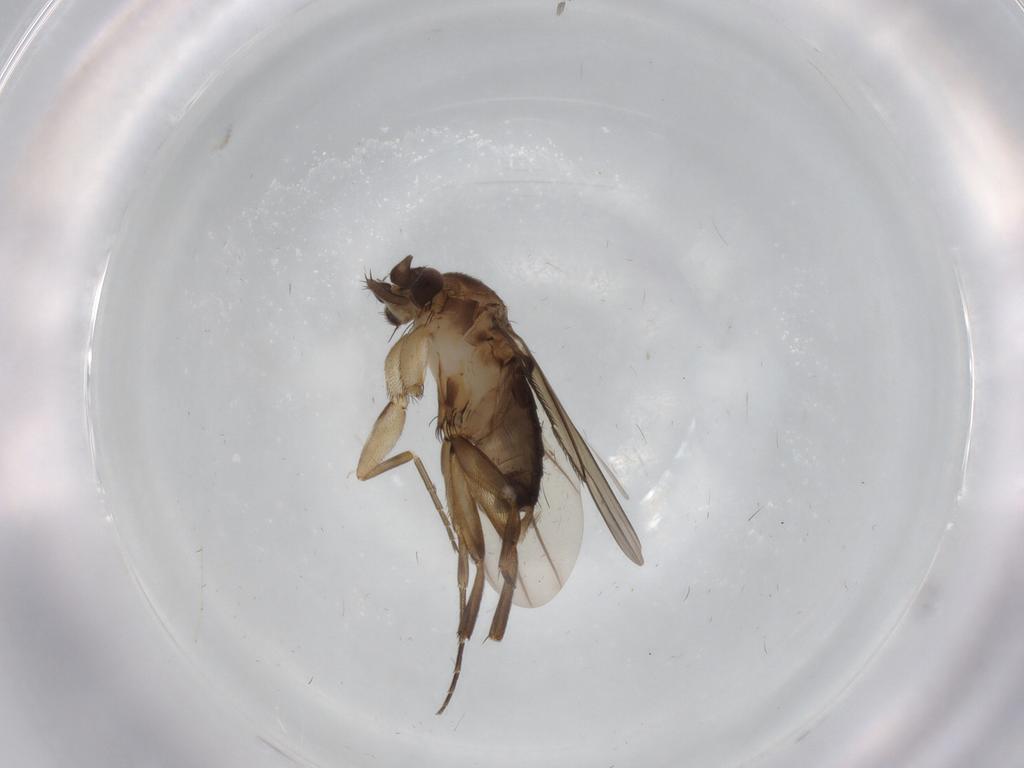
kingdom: Animalia
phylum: Arthropoda
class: Insecta
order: Diptera
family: Phoridae
